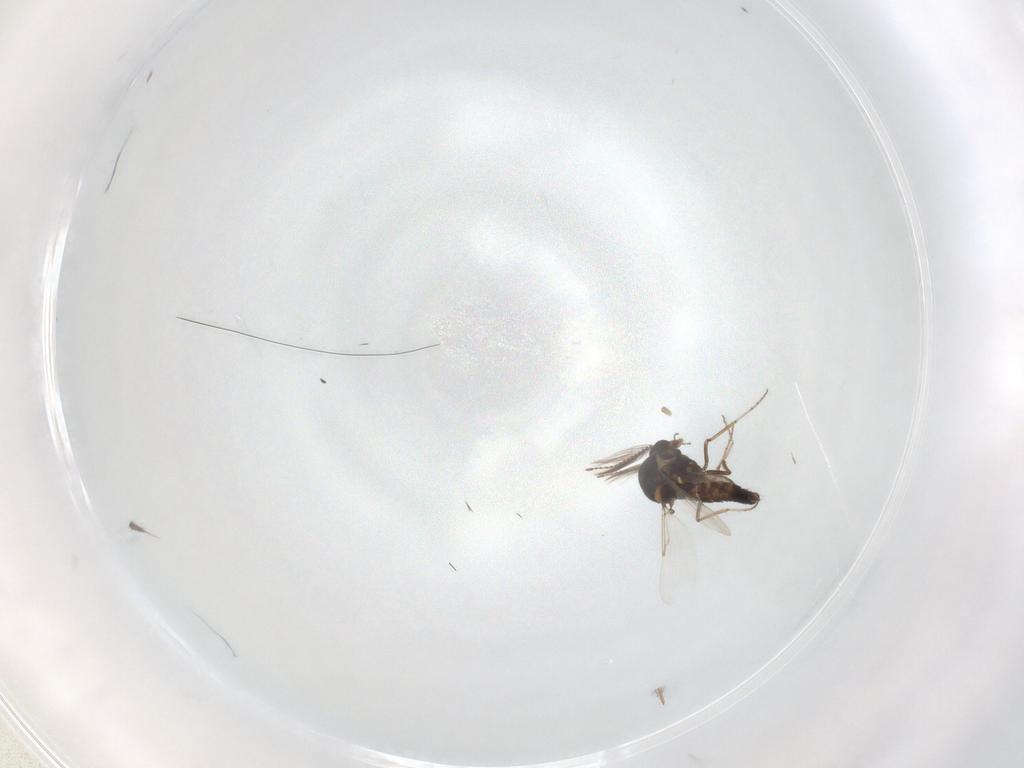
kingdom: Animalia
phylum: Arthropoda
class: Insecta
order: Diptera
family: Ceratopogonidae
